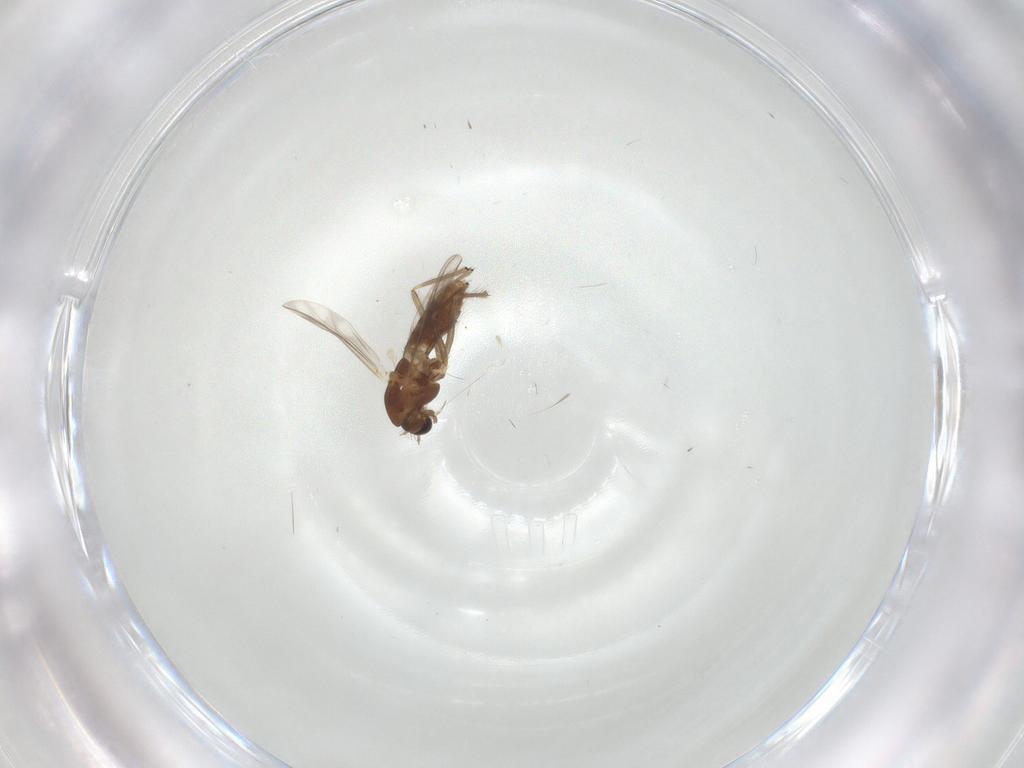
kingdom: Animalia
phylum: Arthropoda
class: Insecta
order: Diptera
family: Chironomidae
